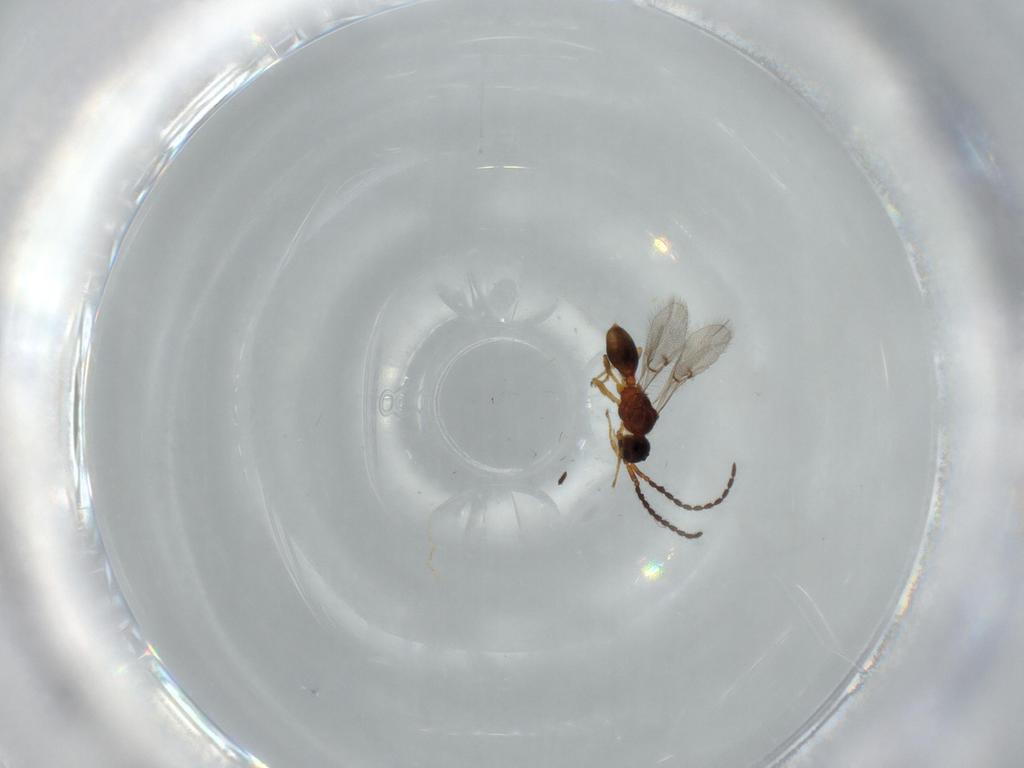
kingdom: Animalia
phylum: Arthropoda
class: Insecta
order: Hymenoptera
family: Diapriidae
